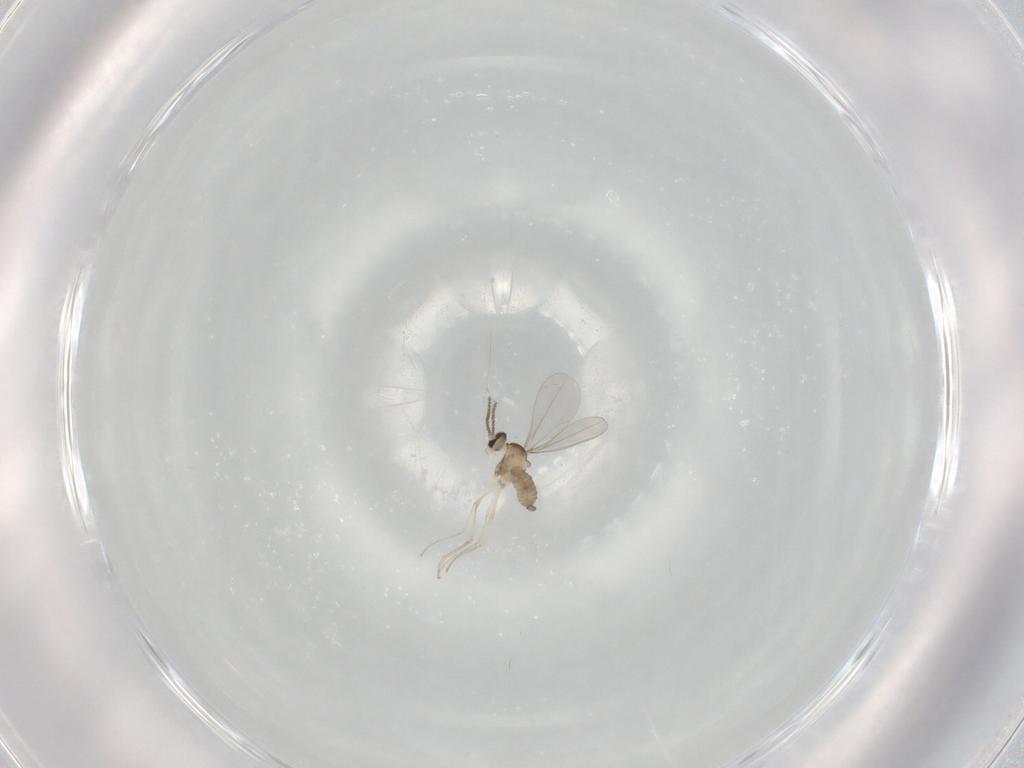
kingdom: Animalia
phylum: Arthropoda
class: Insecta
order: Diptera
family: Cecidomyiidae
